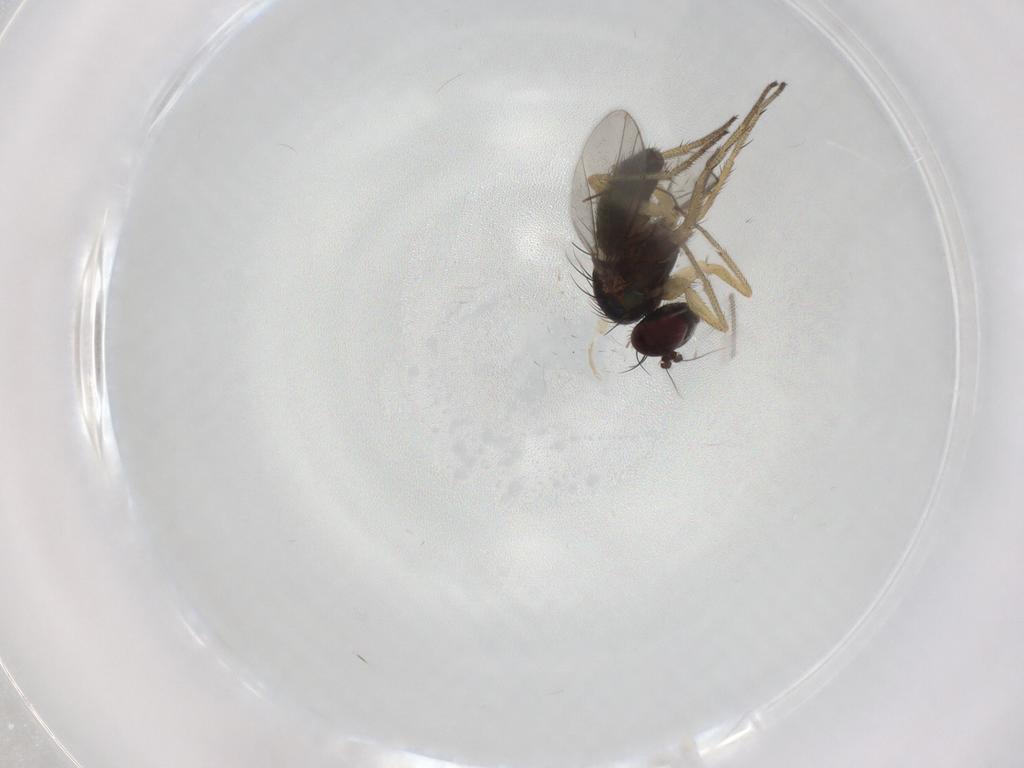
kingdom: Animalia
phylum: Arthropoda
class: Insecta
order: Diptera
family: Dolichopodidae
